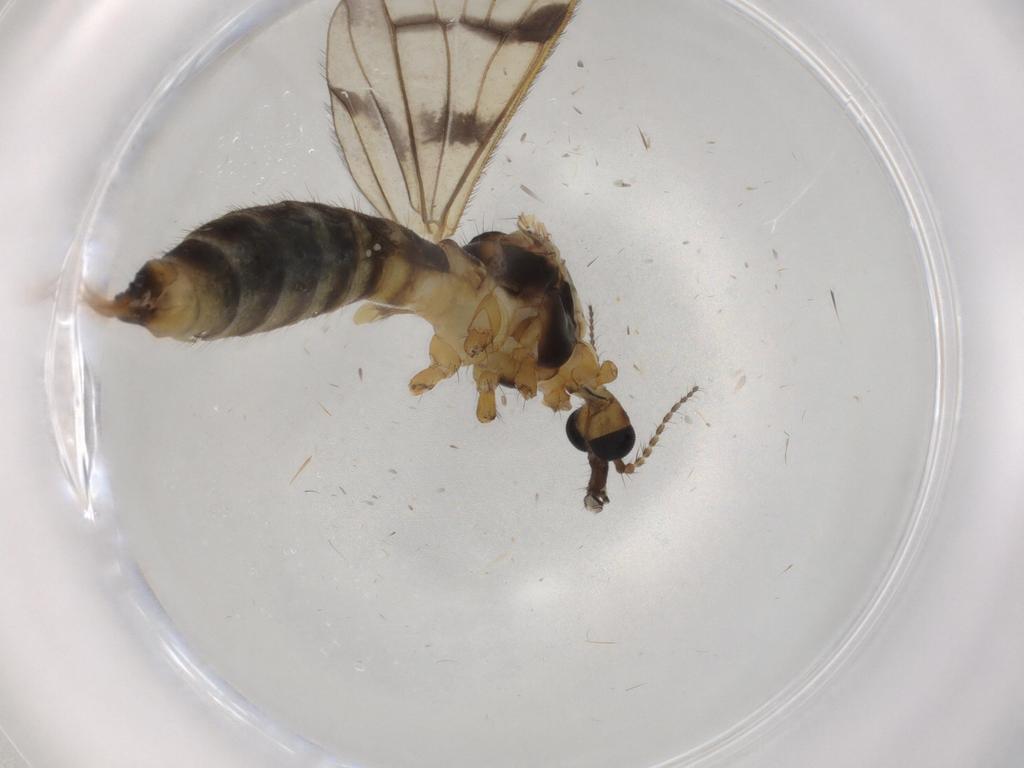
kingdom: Animalia
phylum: Arthropoda
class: Insecta
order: Diptera
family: Limoniidae
